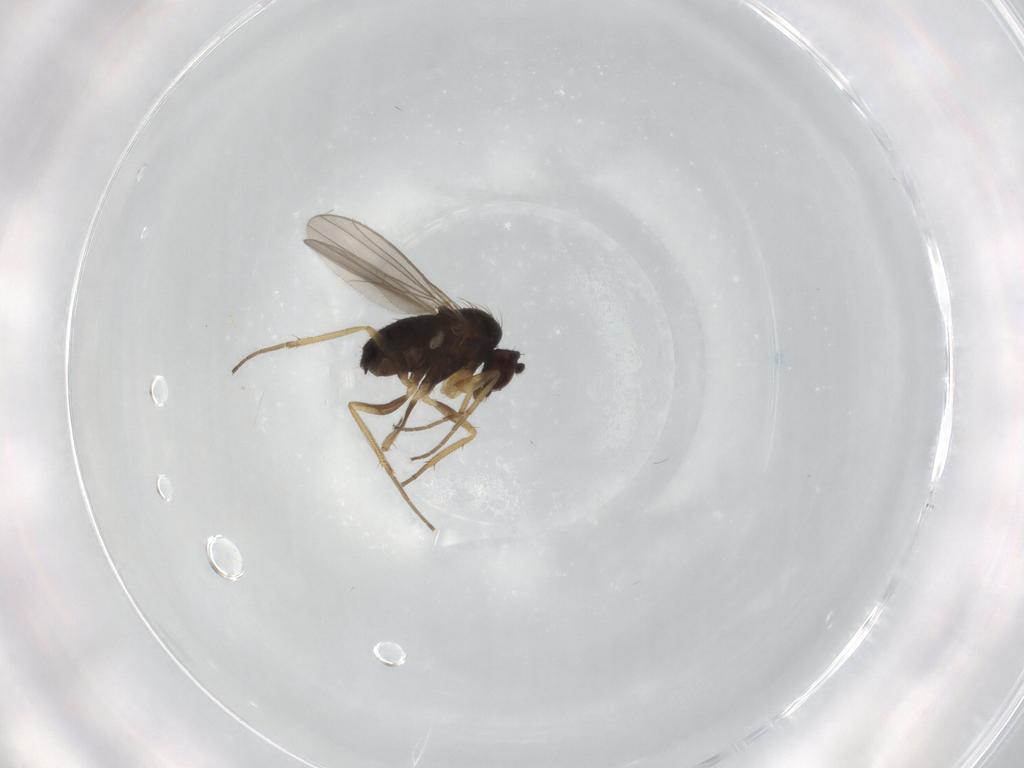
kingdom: Animalia
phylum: Arthropoda
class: Insecta
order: Diptera
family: Dolichopodidae
